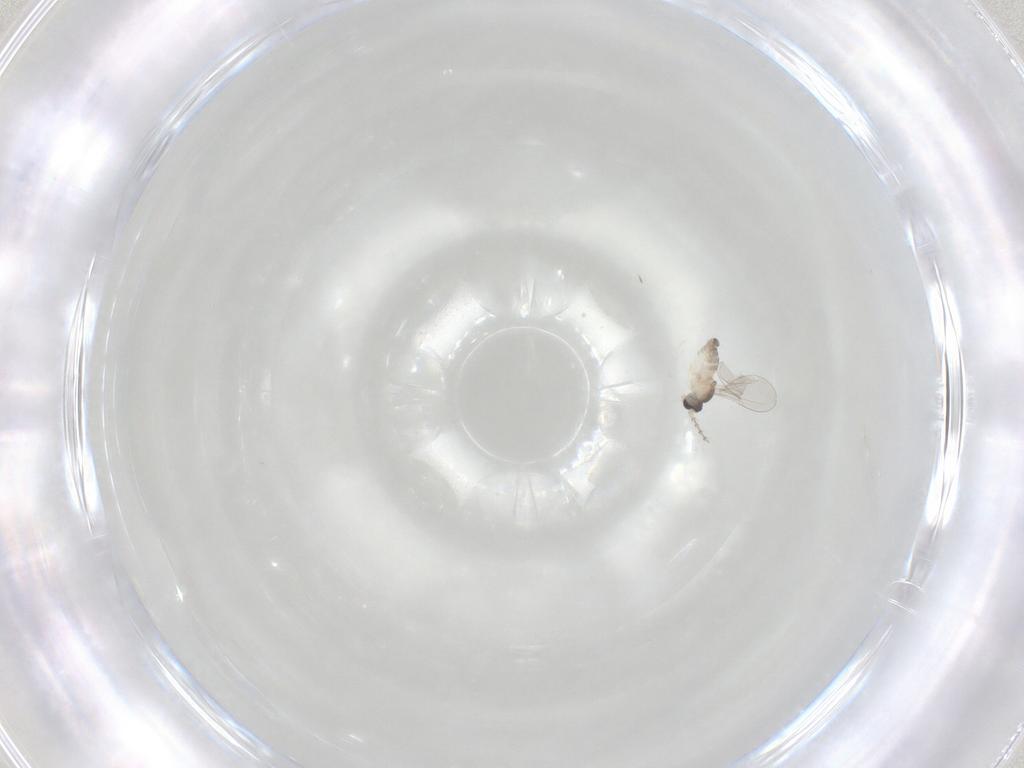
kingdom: Animalia
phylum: Arthropoda
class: Insecta
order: Diptera
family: Cecidomyiidae
